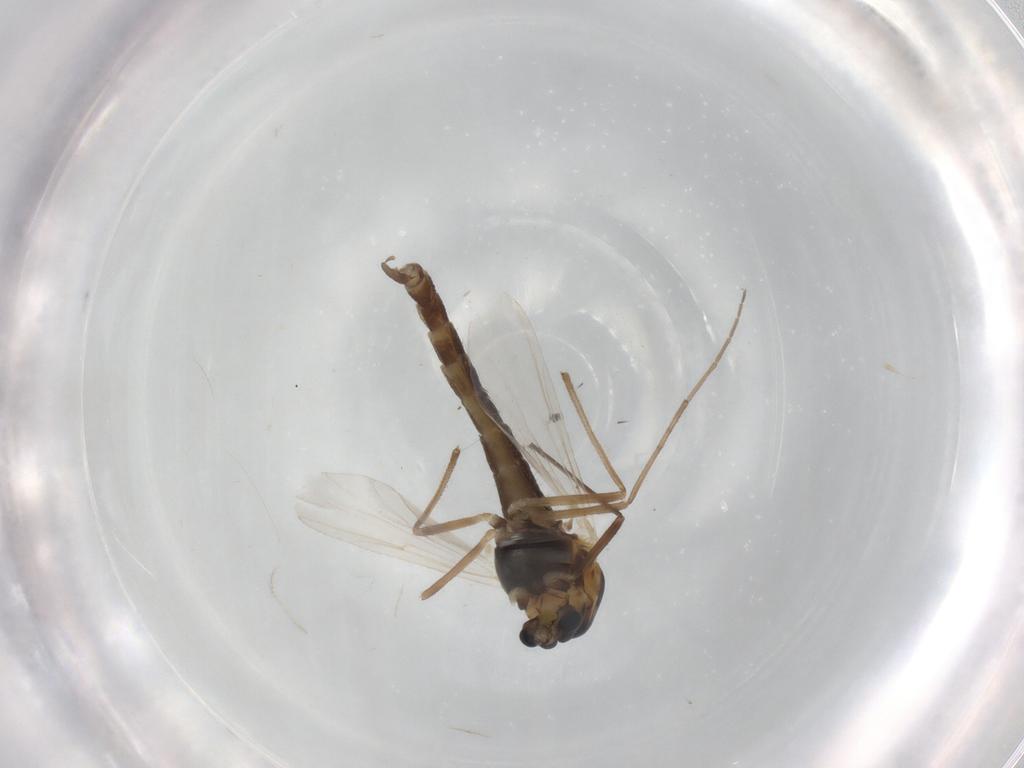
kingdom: Animalia
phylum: Arthropoda
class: Insecta
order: Diptera
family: Chironomidae
